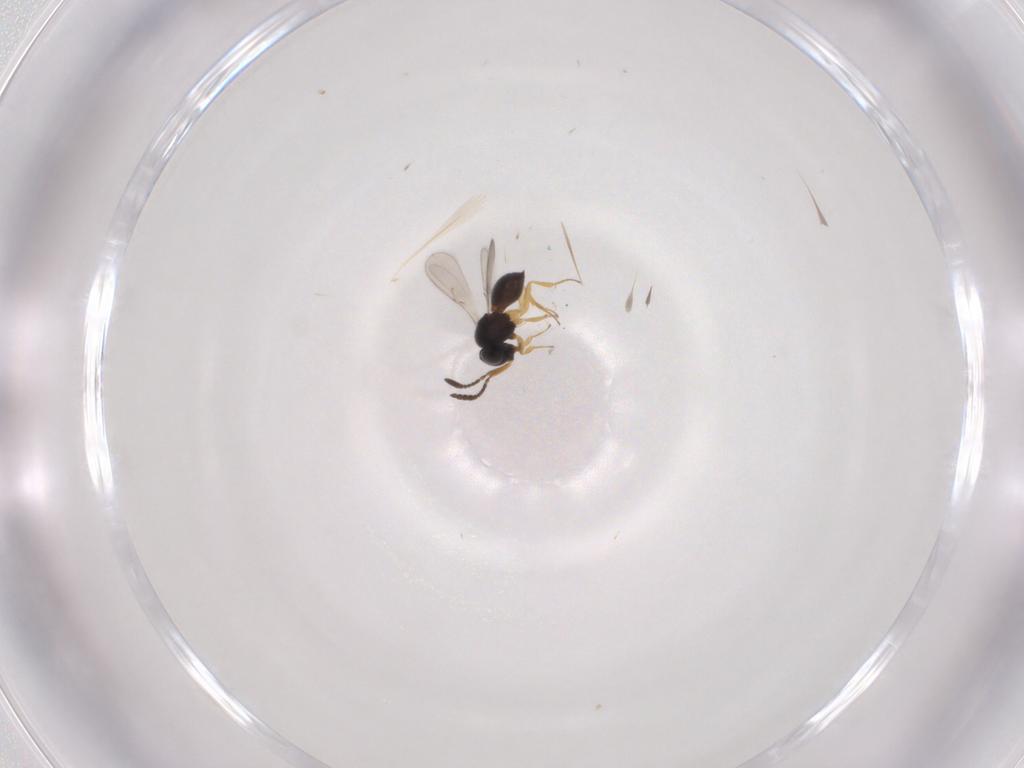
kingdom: Animalia
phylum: Arthropoda
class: Insecta
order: Hymenoptera
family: Scelionidae
